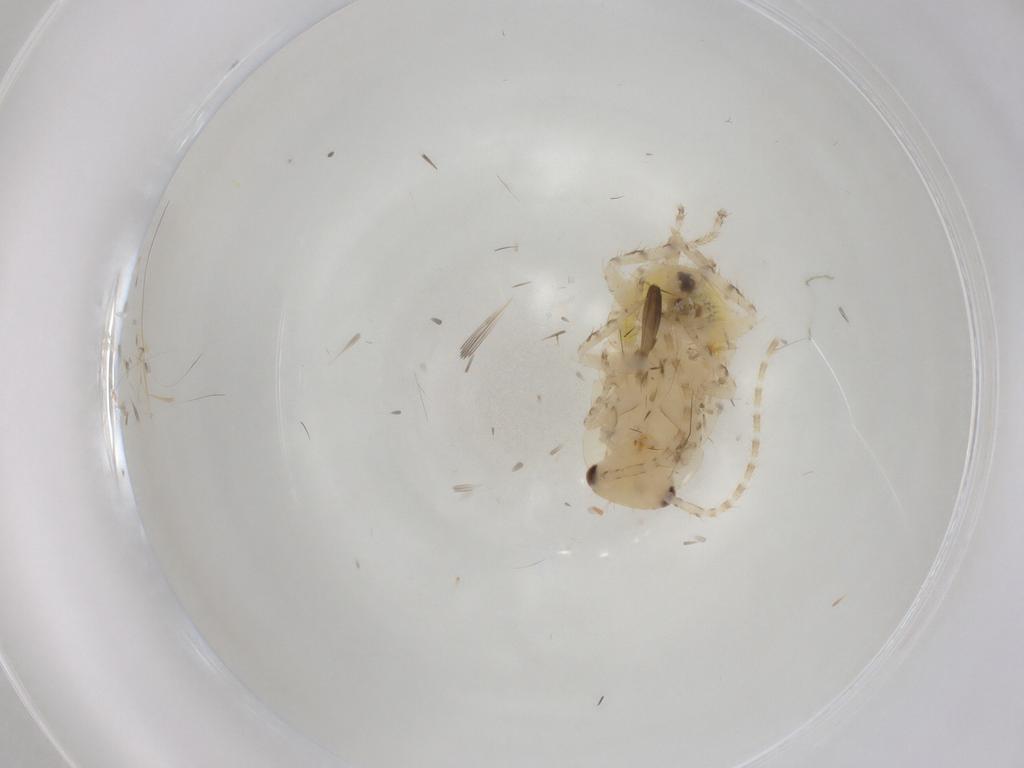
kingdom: Animalia
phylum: Arthropoda
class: Insecta
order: Blattodea
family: Ectobiidae
